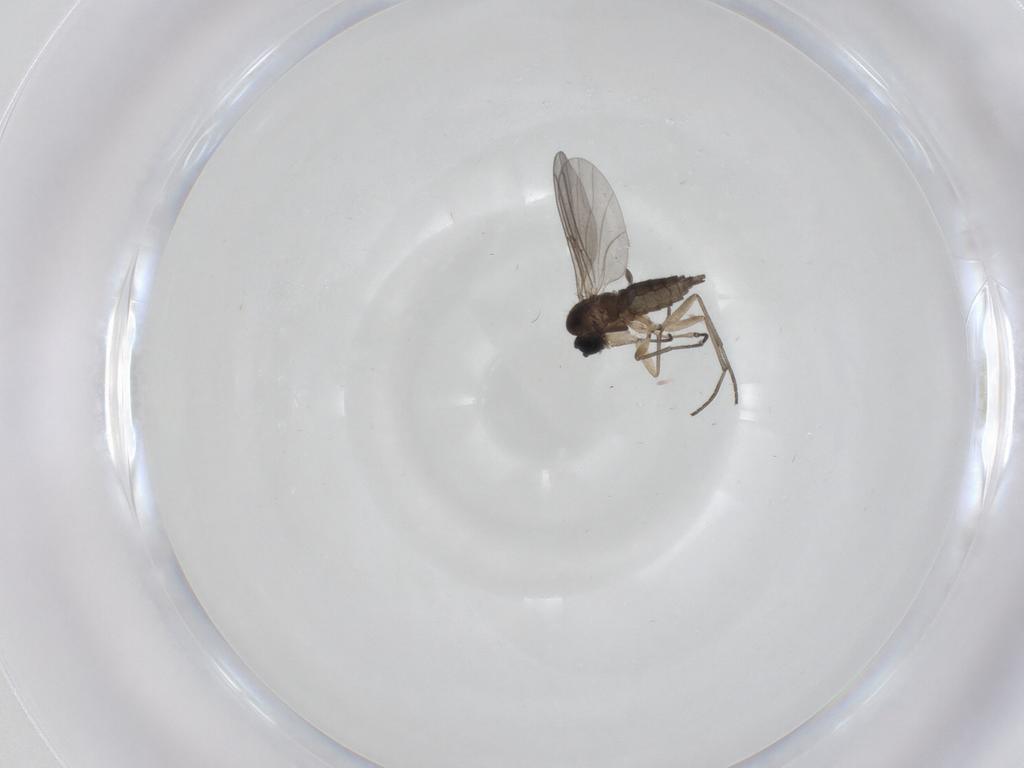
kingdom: Animalia
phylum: Arthropoda
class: Insecta
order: Diptera
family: Sciaridae
